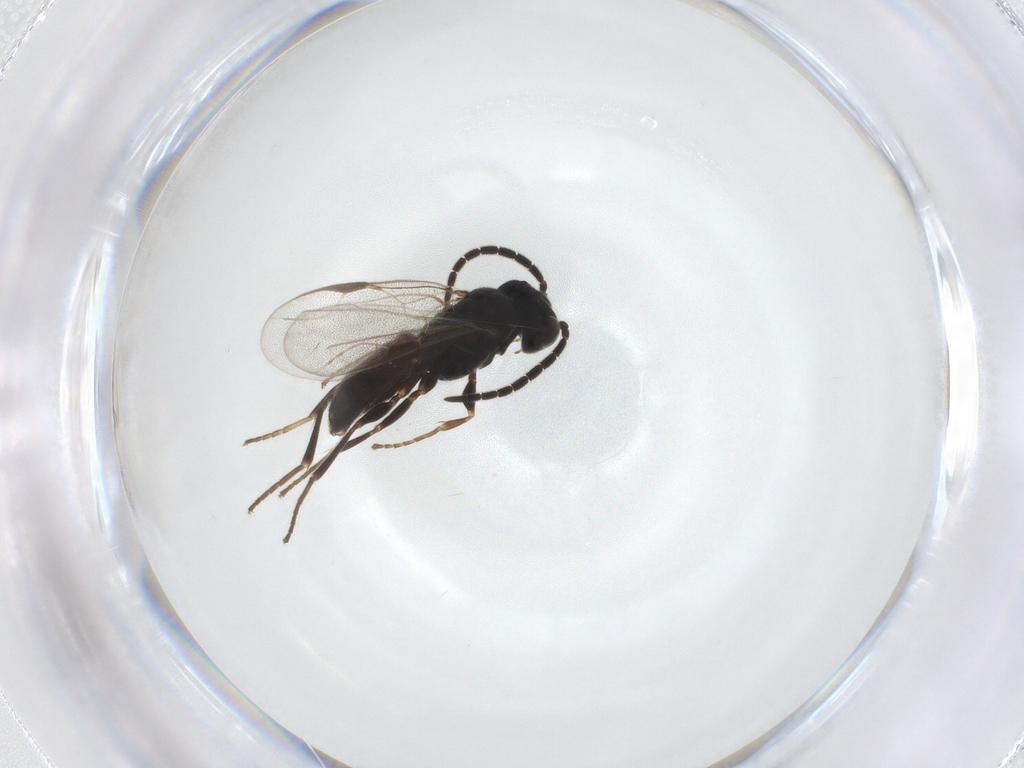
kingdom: Animalia
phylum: Arthropoda
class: Insecta
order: Hymenoptera
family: Dryinidae
